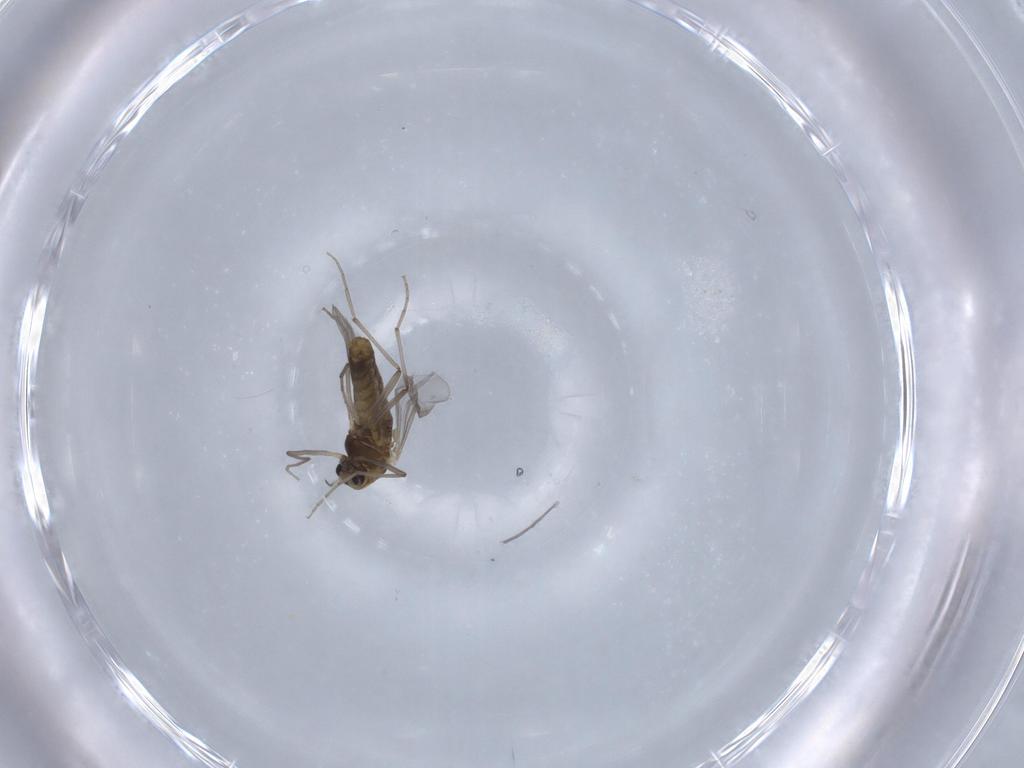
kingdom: Animalia
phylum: Arthropoda
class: Insecta
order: Diptera
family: Chironomidae
